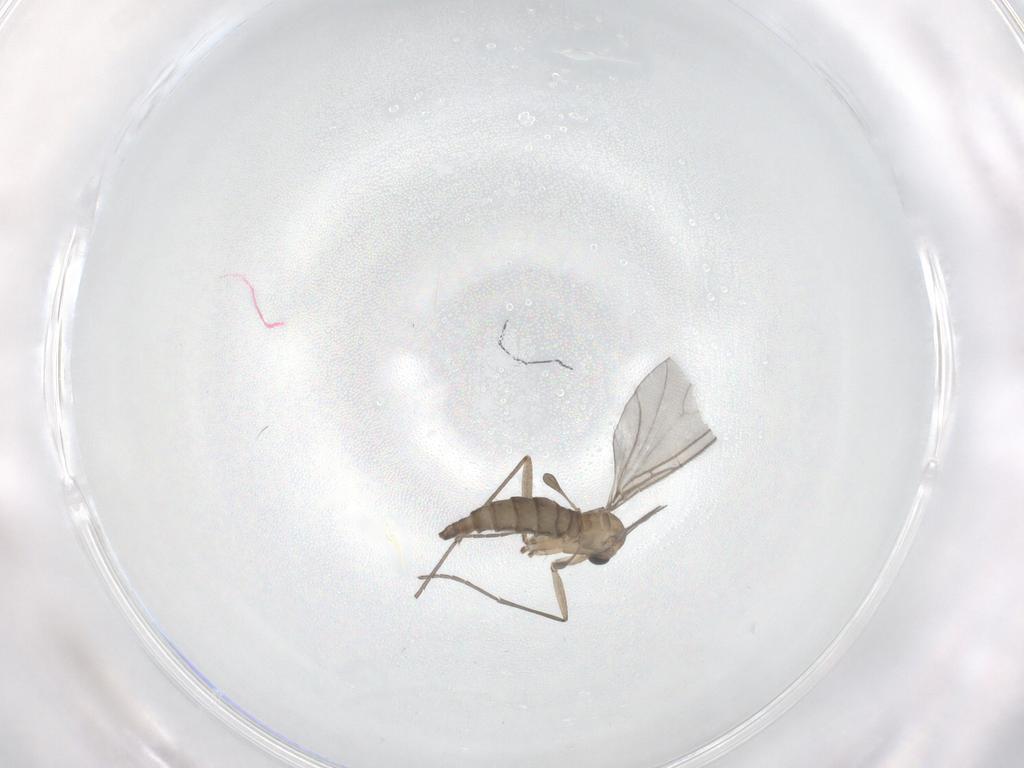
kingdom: Animalia
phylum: Arthropoda
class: Insecta
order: Diptera
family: Sciaridae
